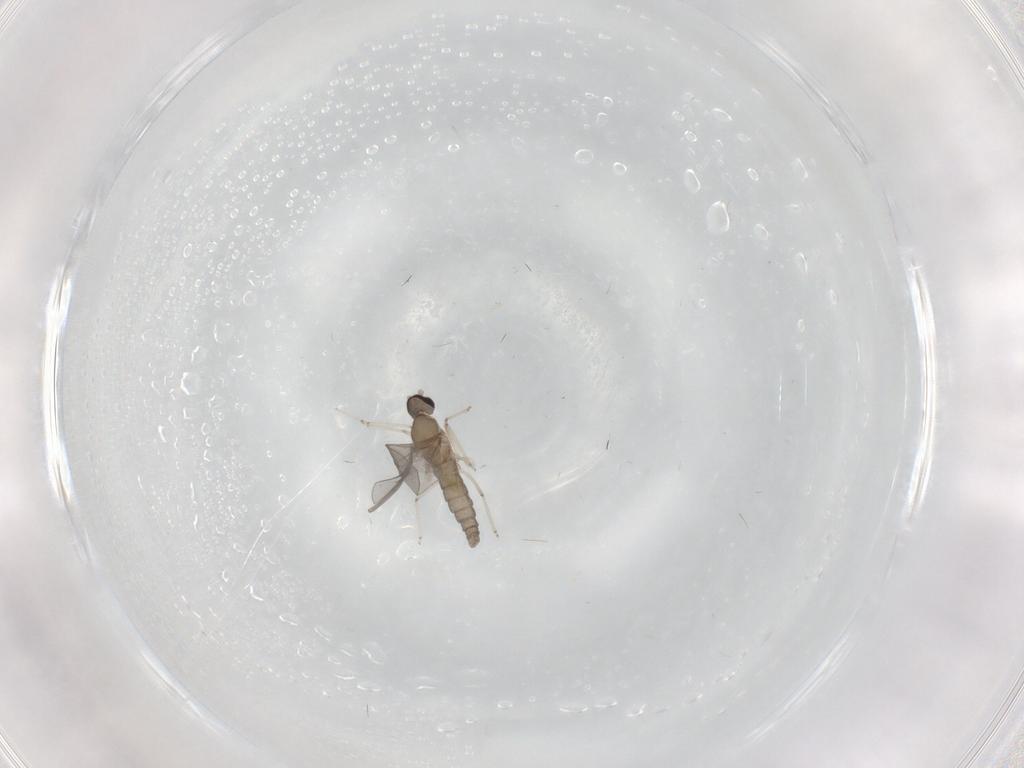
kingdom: Animalia
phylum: Arthropoda
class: Insecta
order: Diptera
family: Cecidomyiidae
